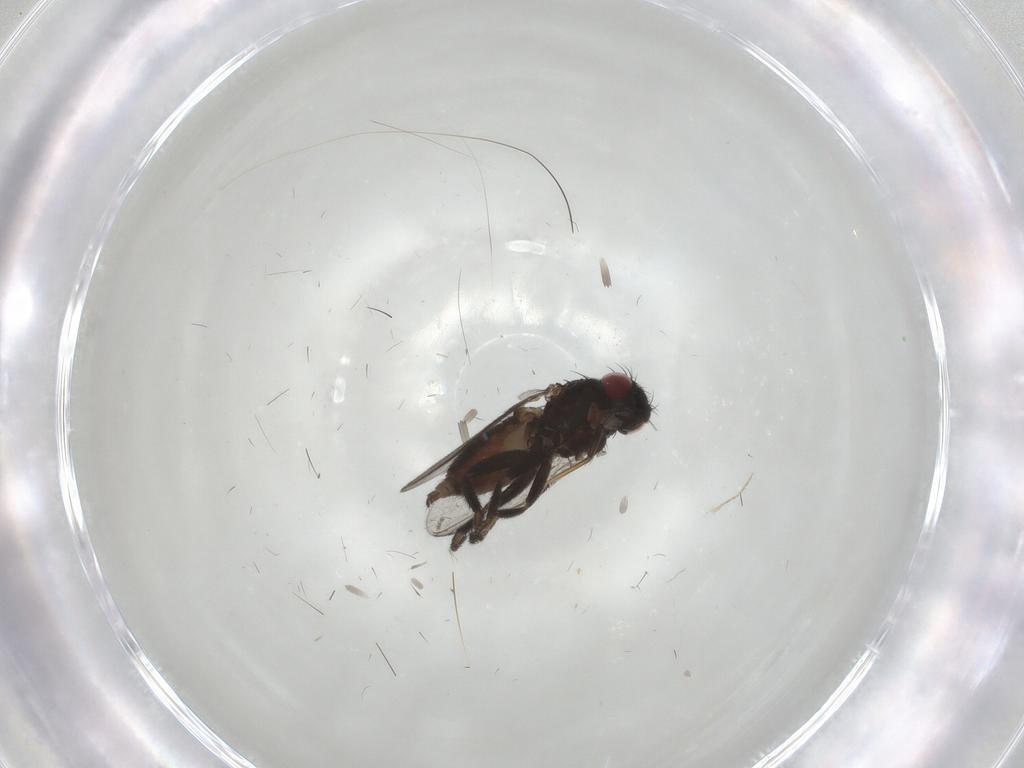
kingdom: Animalia
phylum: Arthropoda
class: Insecta
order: Diptera
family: Milichiidae
